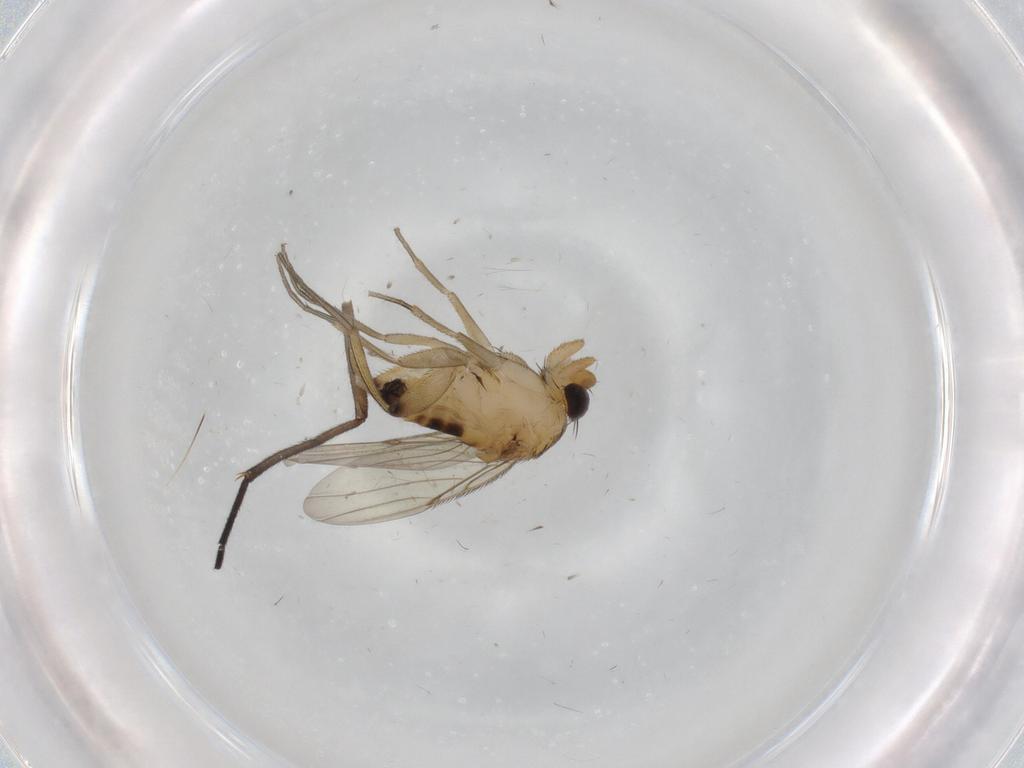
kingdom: Animalia
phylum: Arthropoda
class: Insecta
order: Diptera
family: Phoridae
